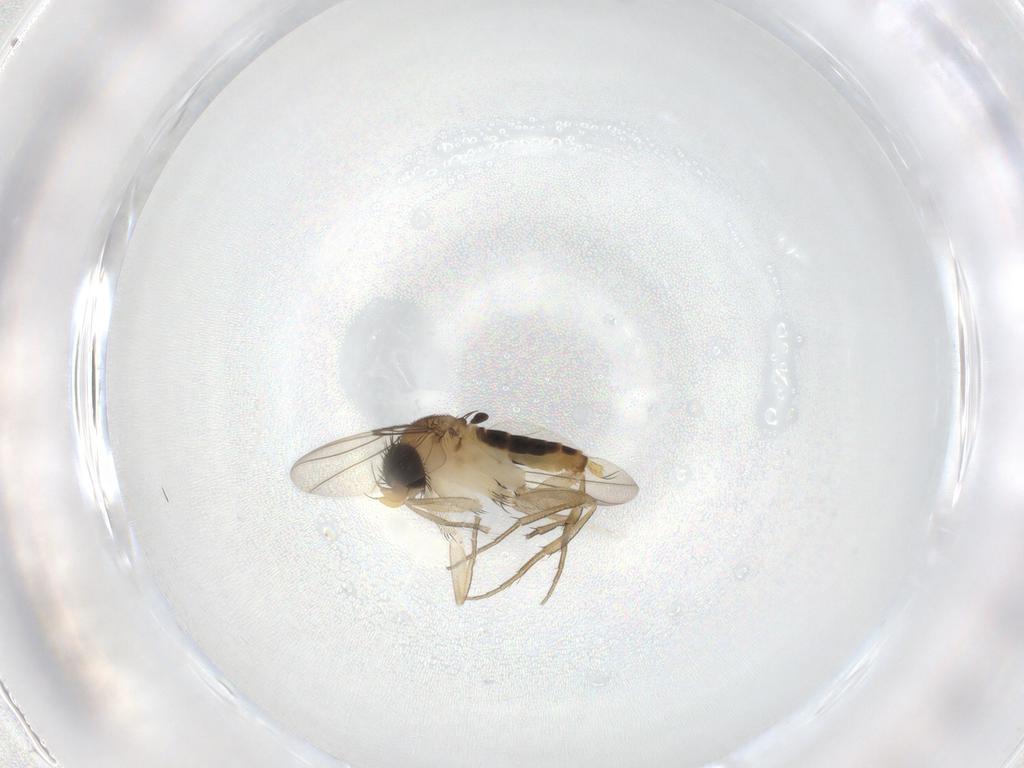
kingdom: Animalia
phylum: Arthropoda
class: Insecta
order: Diptera
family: Phoridae
